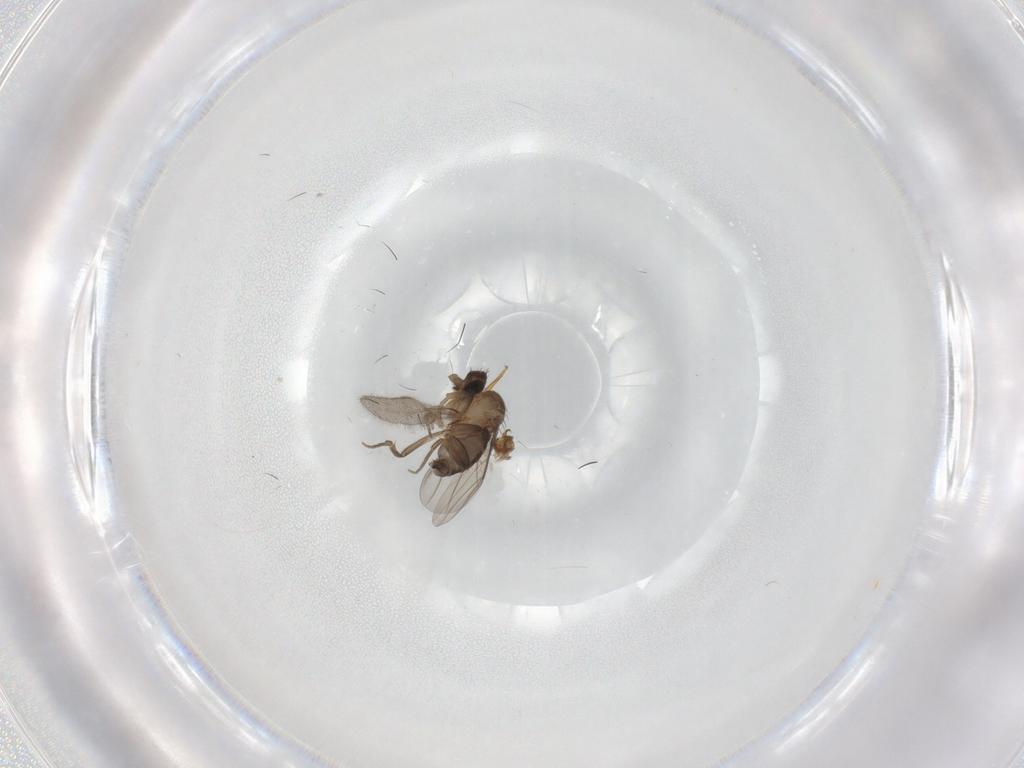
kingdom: Animalia
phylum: Arthropoda
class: Insecta
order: Diptera
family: Phoridae
